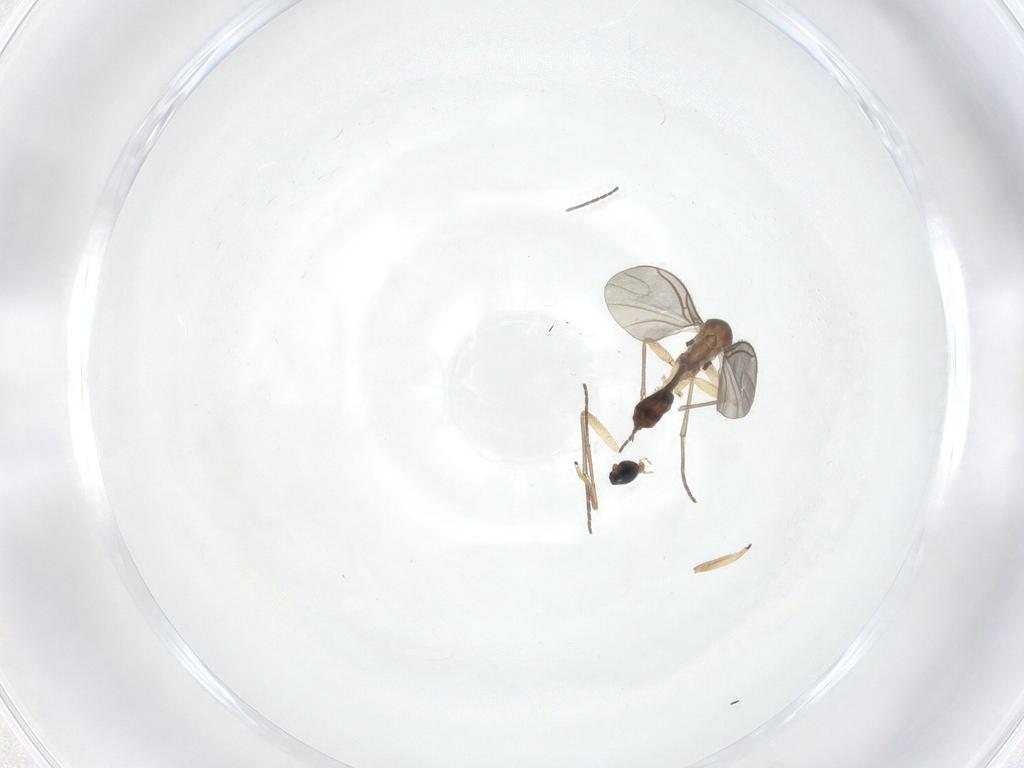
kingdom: Animalia
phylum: Arthropoda
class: Insecta
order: Diptera
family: Sciaridae
